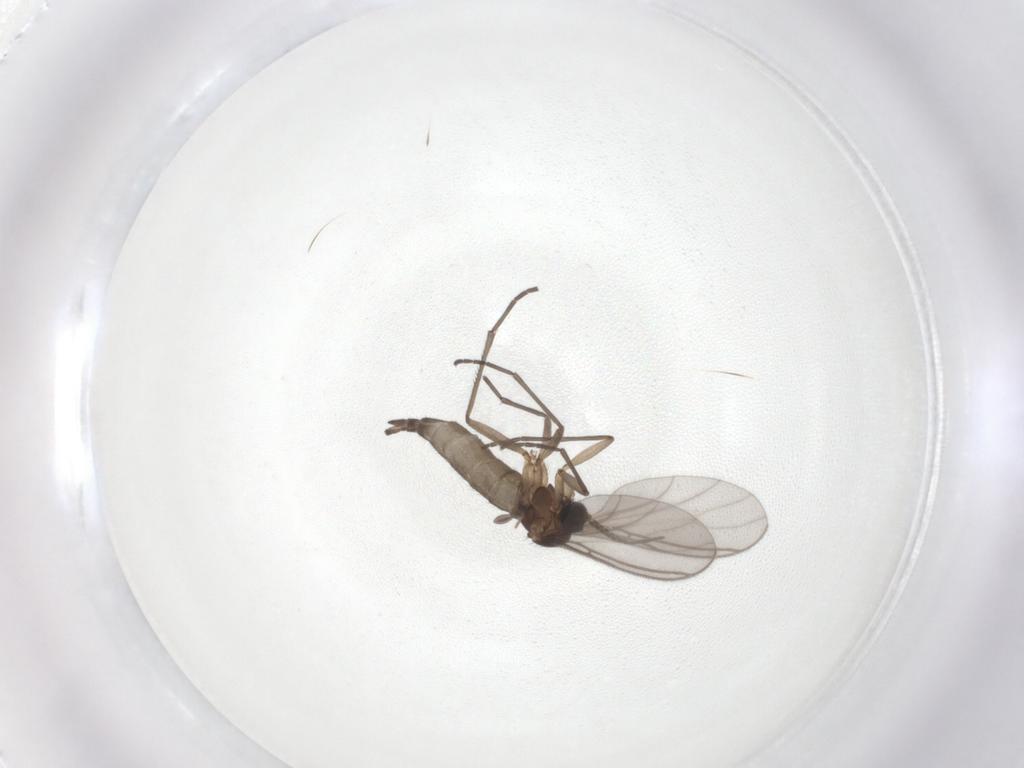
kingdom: Animalia
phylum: Arthropoda
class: Insecta
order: Diptera
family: Sciaridae
